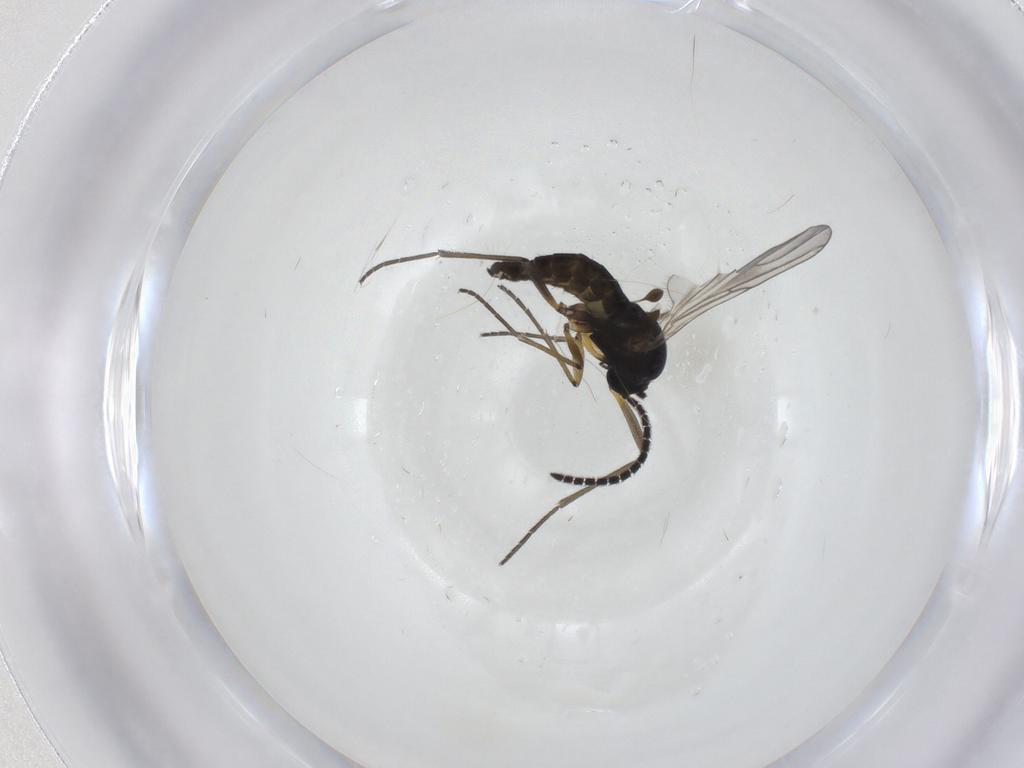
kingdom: Animalia
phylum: Arthropoda
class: Insecta
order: Diptera
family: Sciaridae
